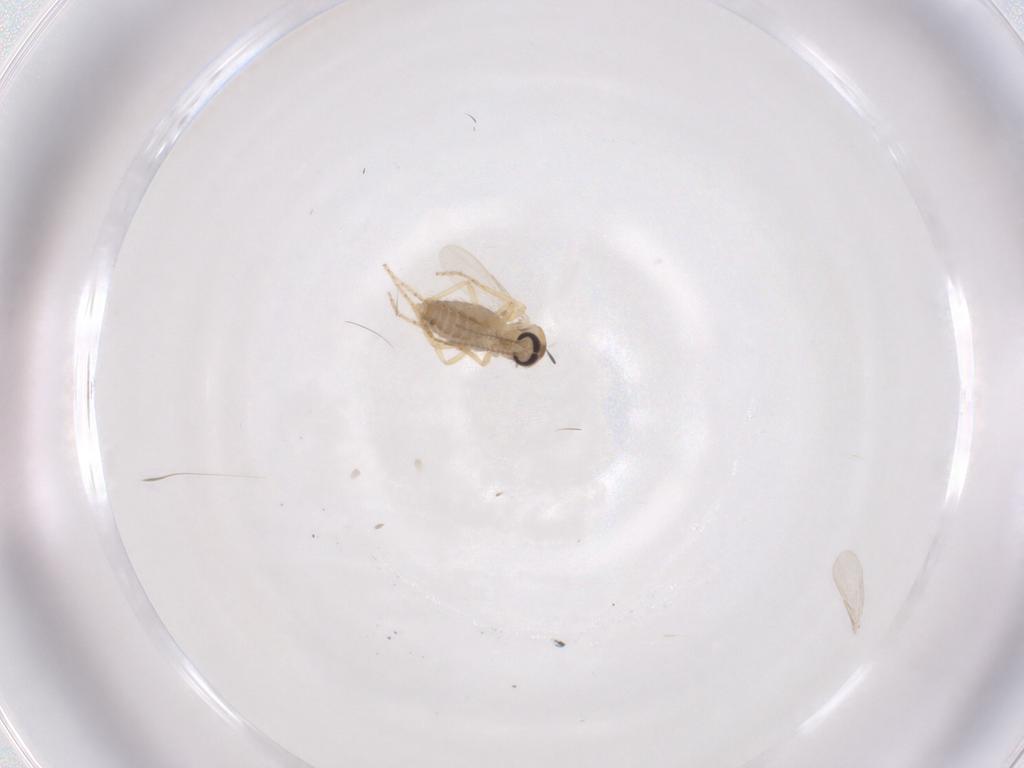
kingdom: Animalia
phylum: Arthropoda
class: Insecta
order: Diptera
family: Ceratopogonidae
